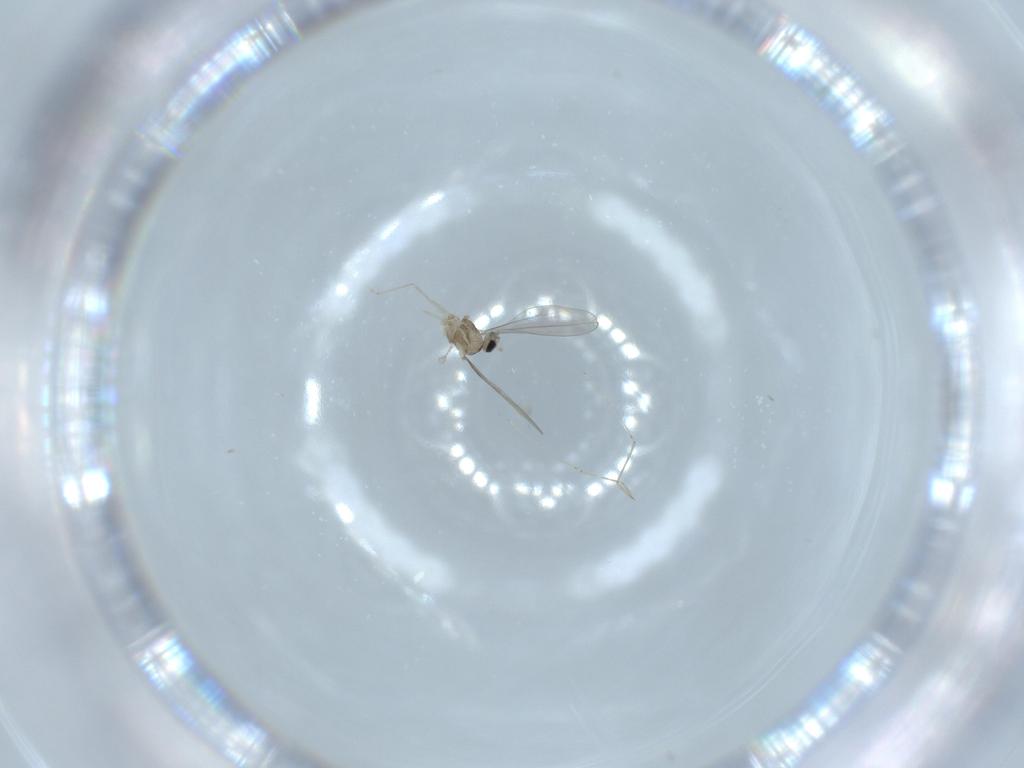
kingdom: Animalia
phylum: Arthropoda
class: Insecta
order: Diptera
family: Cecidomyiidae
